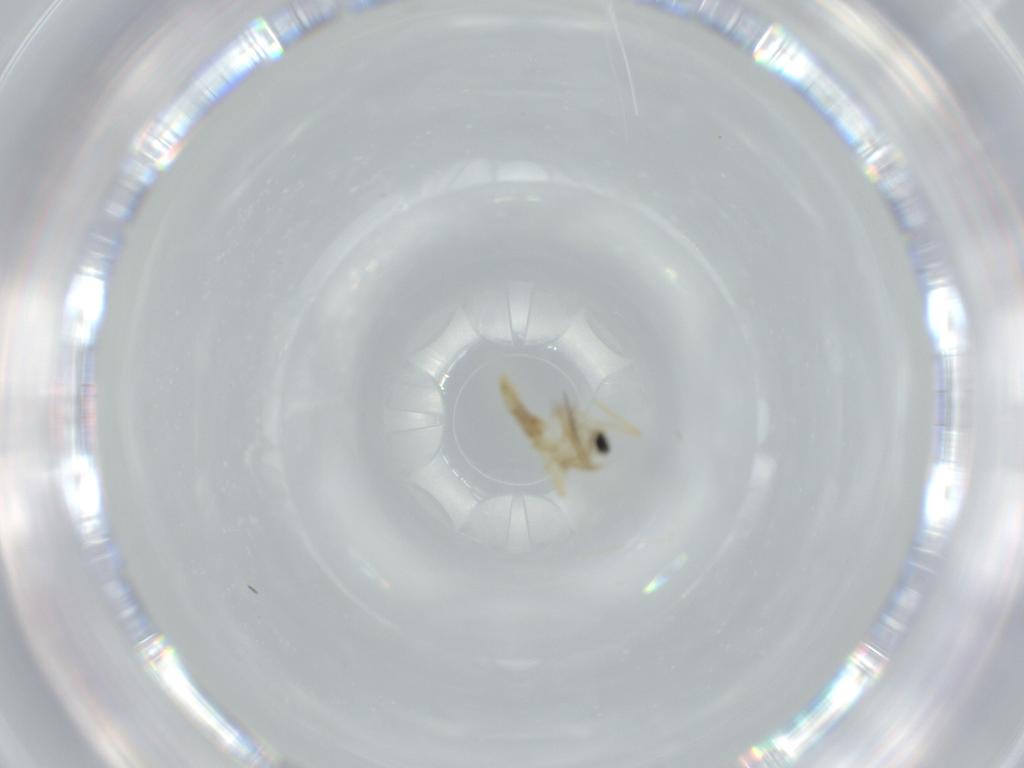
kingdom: Animalia
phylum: Arthropoda
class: Insecta
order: Diptera
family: Chironomidae
